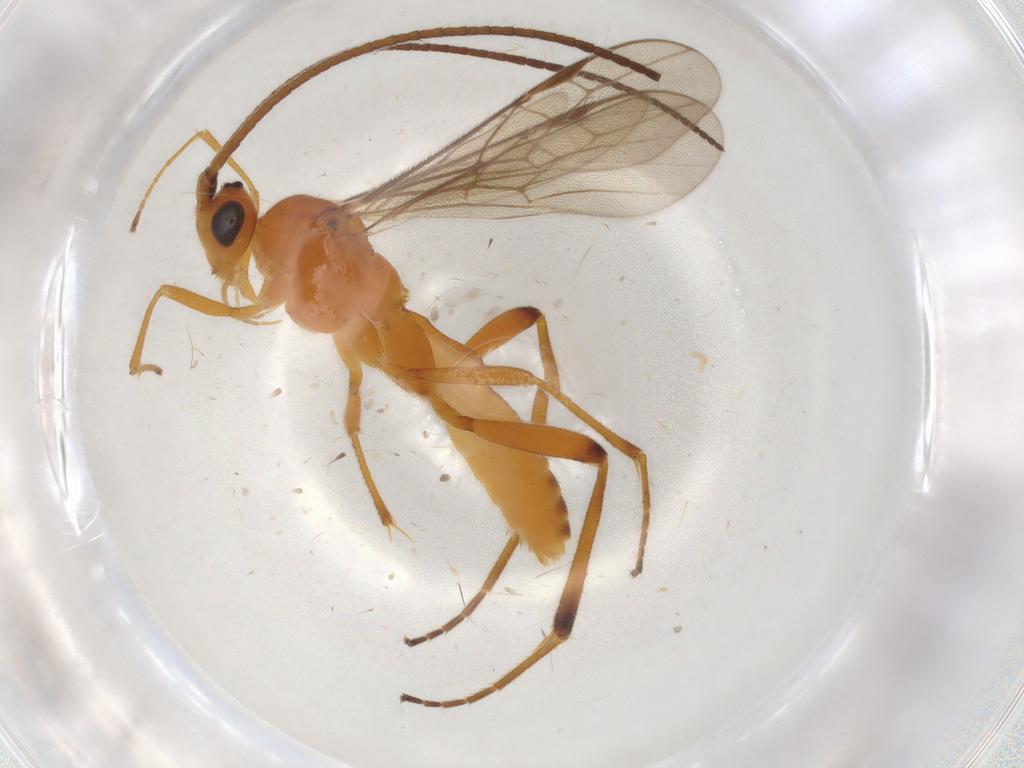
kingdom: Animalia
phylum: Arthropoda
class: Insecta
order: Hymenoptera
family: Braconidae
